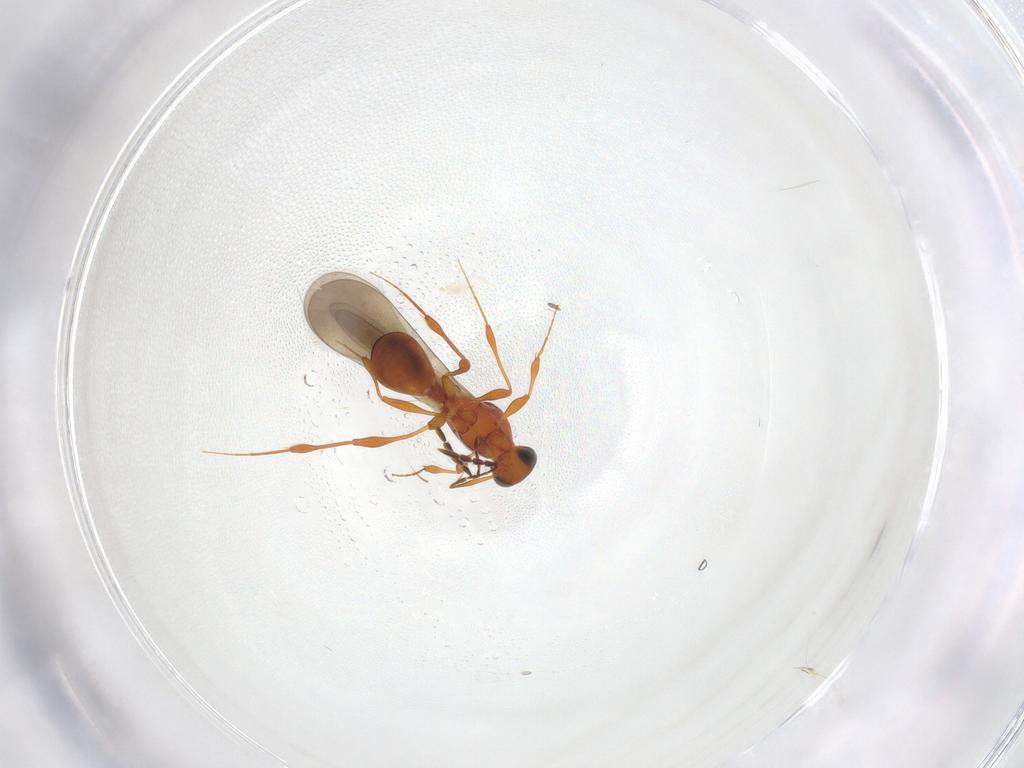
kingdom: Animalia
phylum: Arthropoda
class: Insecta
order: Hymenoptera
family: Platygastridae
